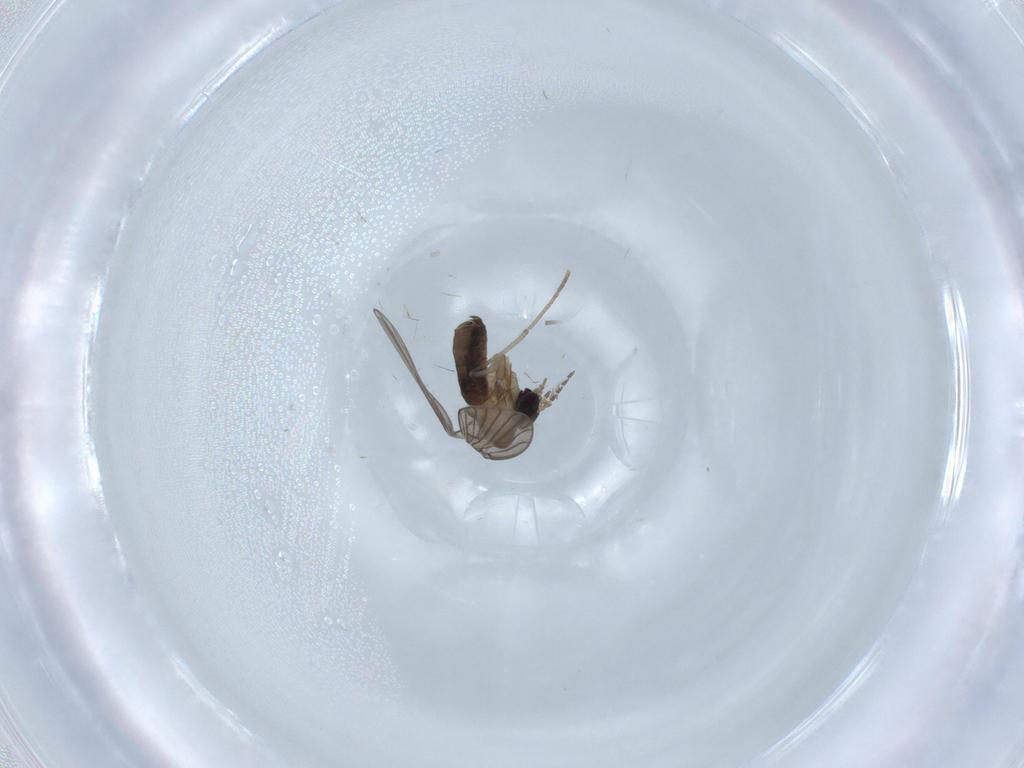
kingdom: Animalia
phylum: Arthropoda
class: Insecta
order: Diptera
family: Psychodidae
